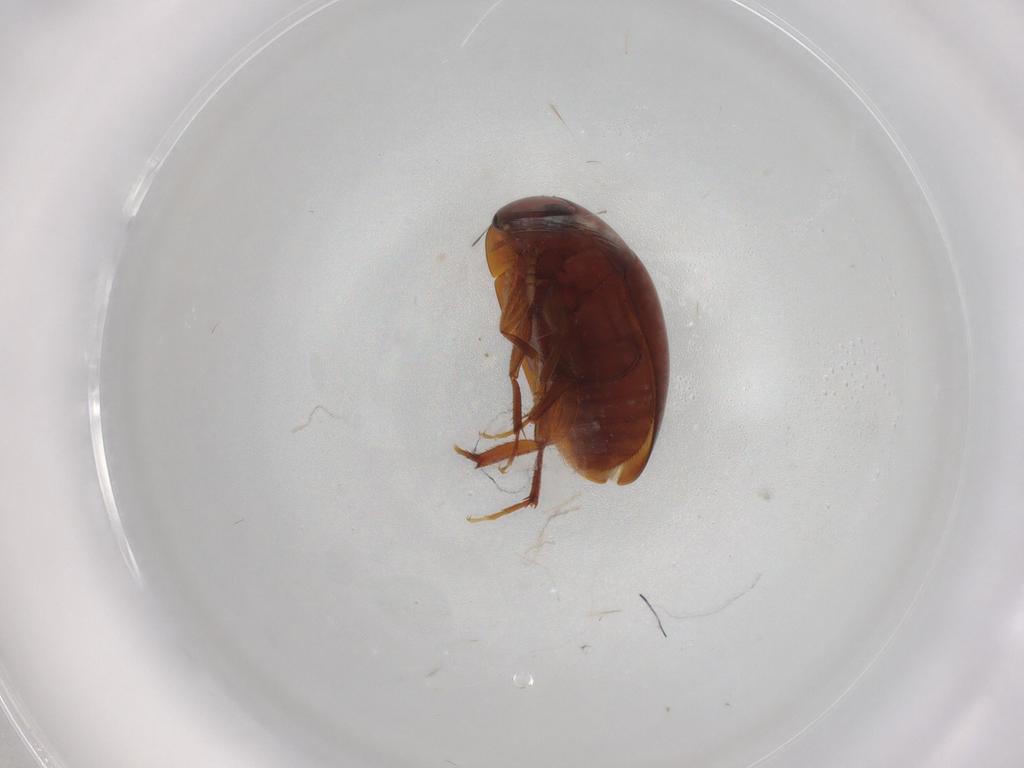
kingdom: Animalia
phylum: Arthropoda
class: Insecta
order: Coleoptera
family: Phalacridae
